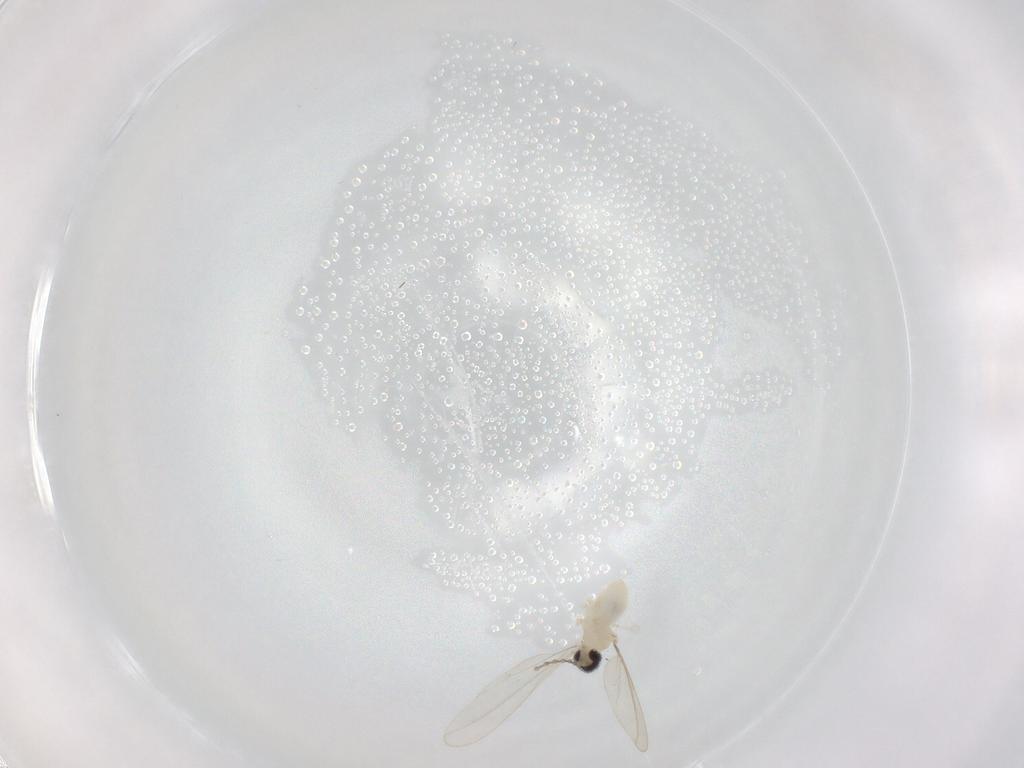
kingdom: Animalia
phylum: Arthropoda
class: Insecta
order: Diptera
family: Cecidomyiidae
